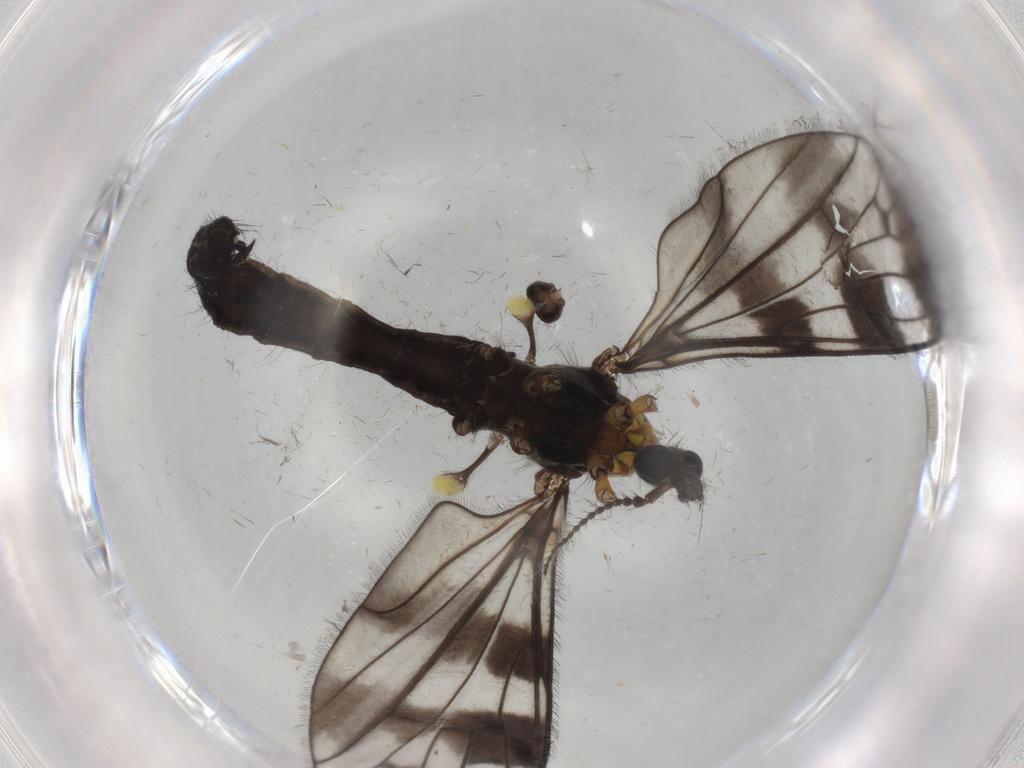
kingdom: Animalia
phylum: Arthropoda
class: Insecta
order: Diptera
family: Limoniidae
